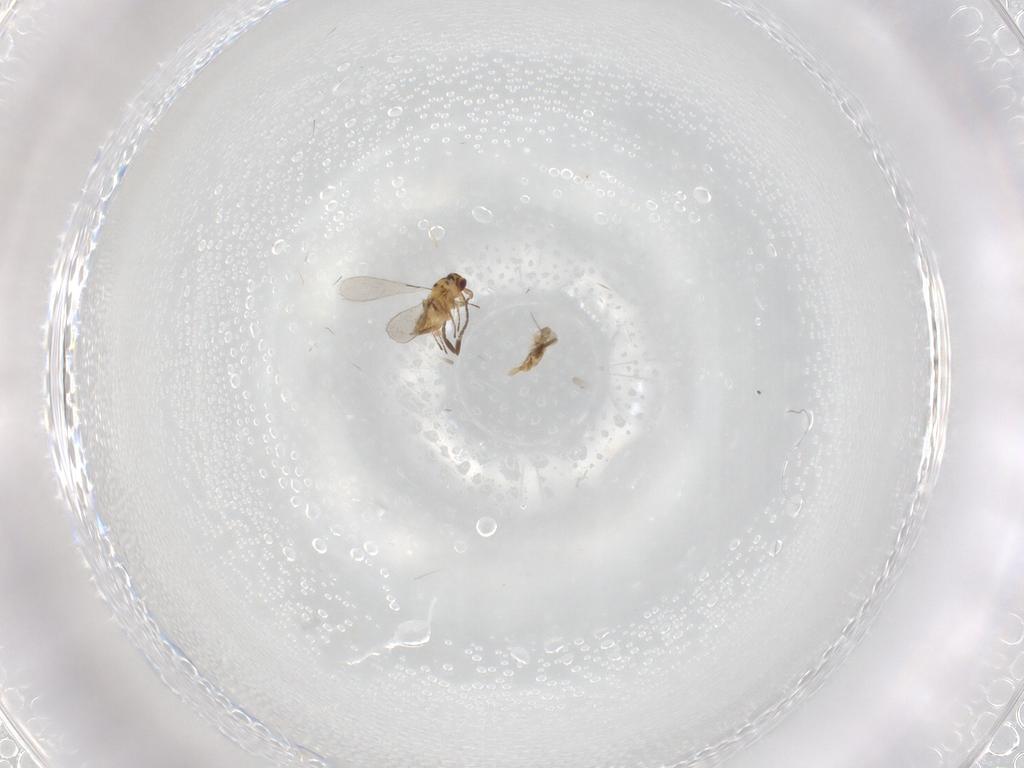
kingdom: Animalia
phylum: Arthropoda
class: Insecta
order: Hymenoptera
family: Mymaridae
